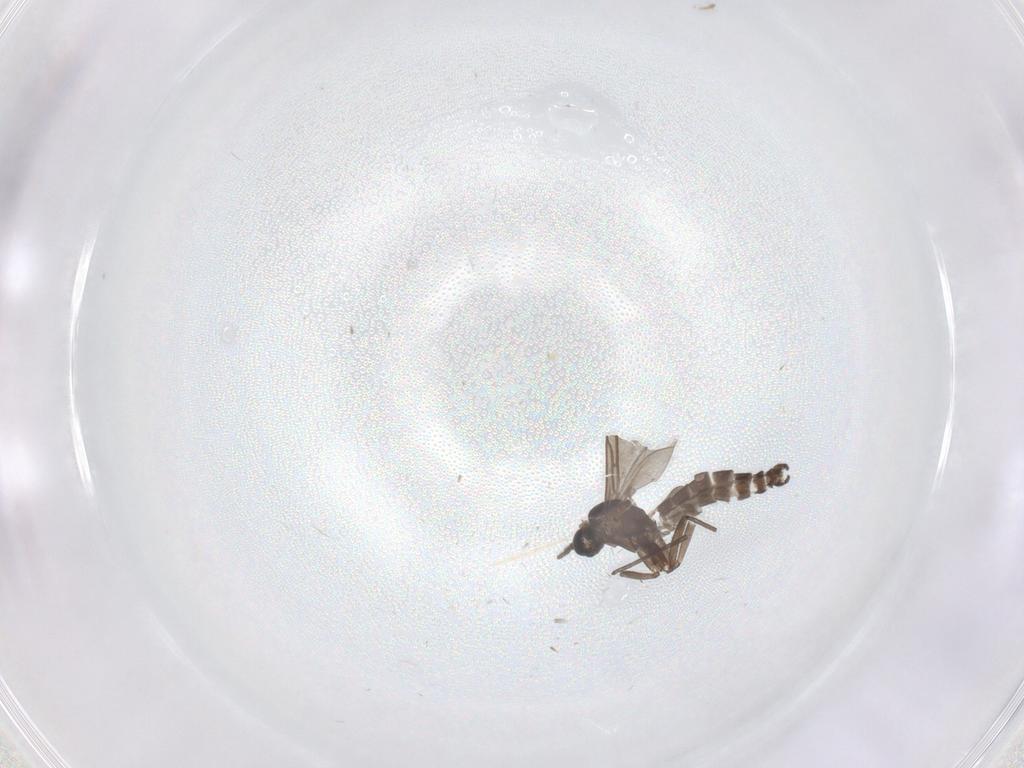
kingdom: Animalia
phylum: Arthropoda
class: Insecta
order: Diptera
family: Sciaridae
